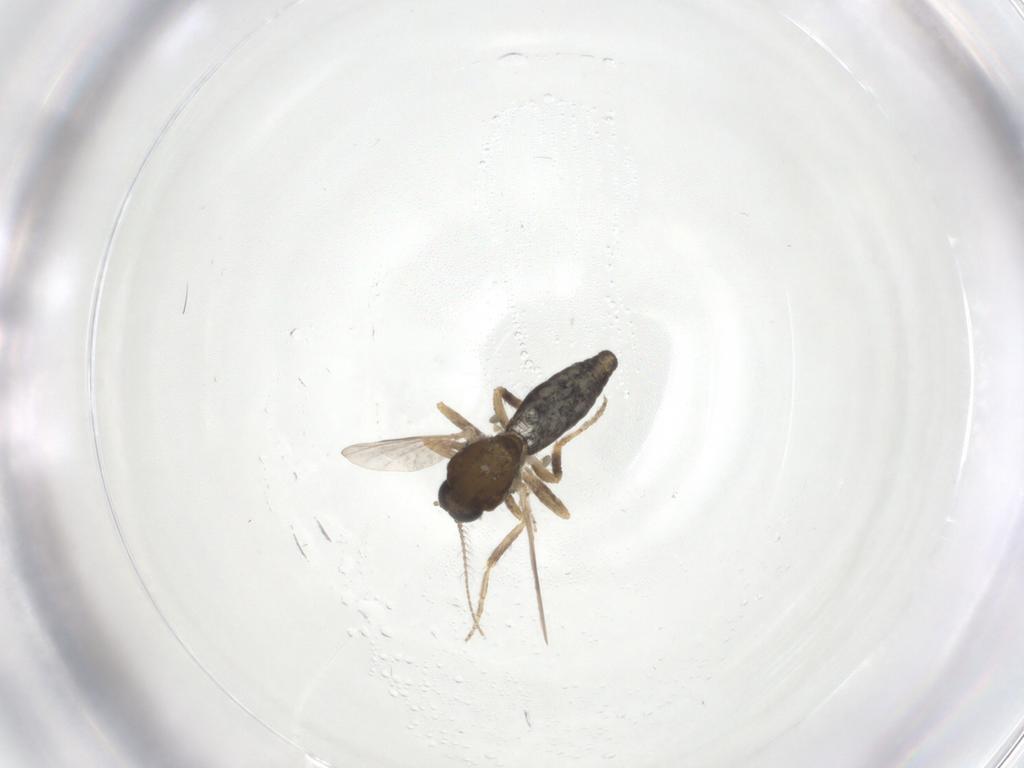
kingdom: Animalia
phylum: Arthropoda
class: Insecta
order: Diptera
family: Ceratopogonidae
